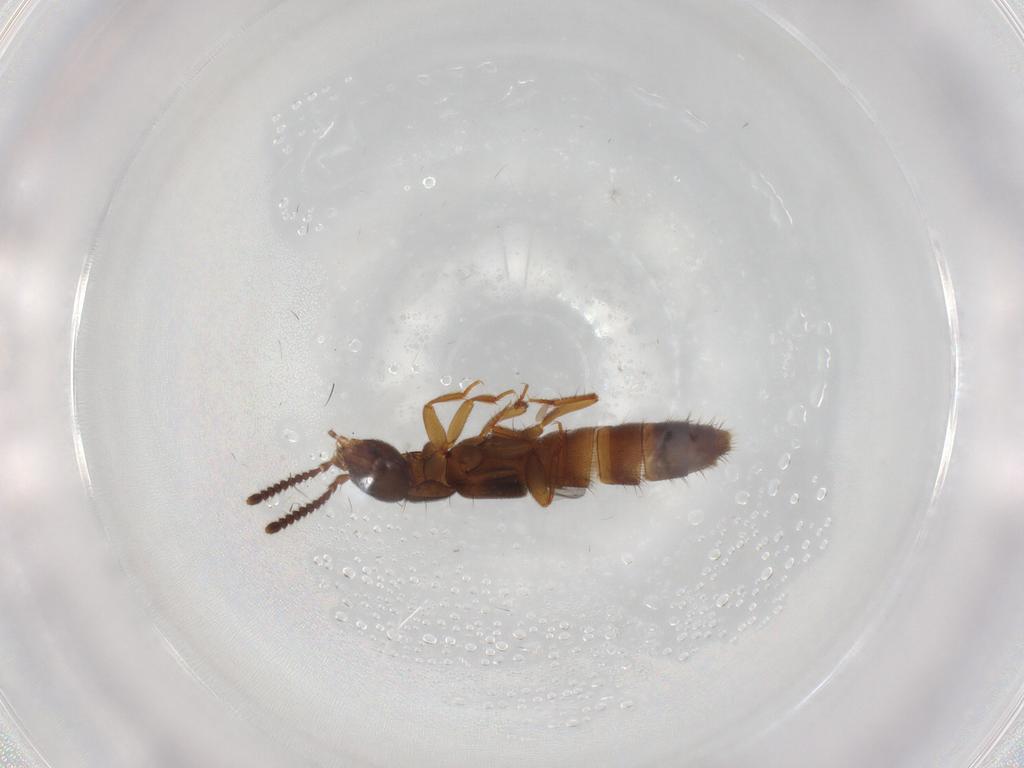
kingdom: Animalia
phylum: Arthropoda
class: Insecta
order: Coleoptera
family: Staphylinidae
